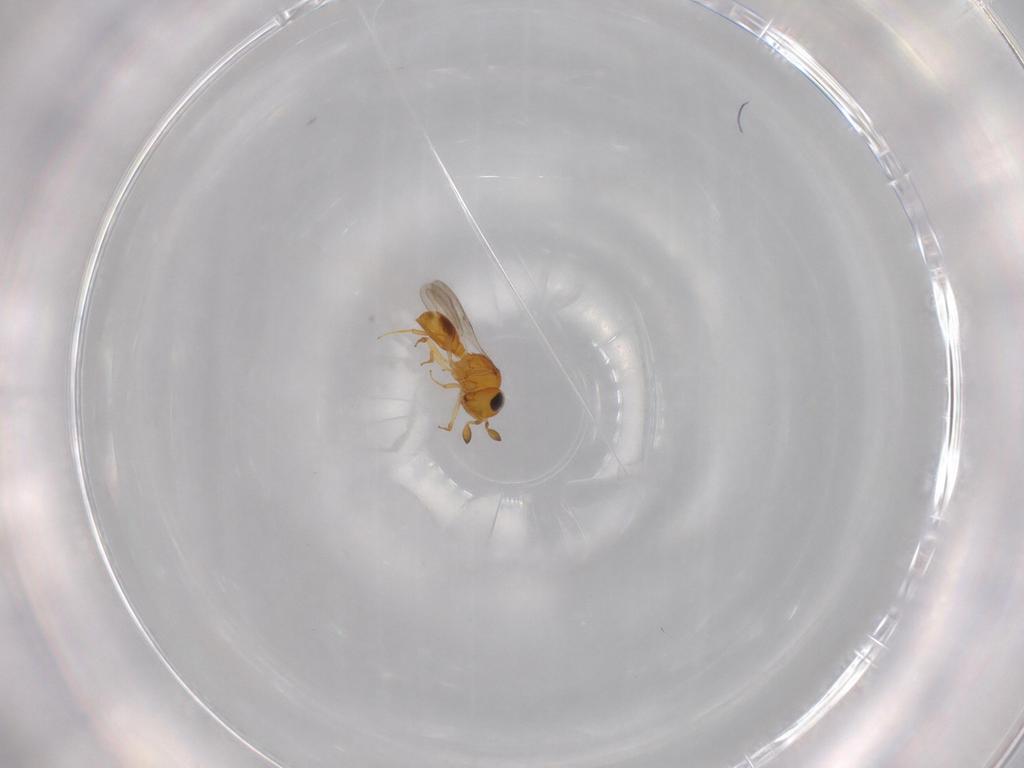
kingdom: Animalia
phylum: Arthropoda
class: Insecta
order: Hymenoptera
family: Scelionidae
